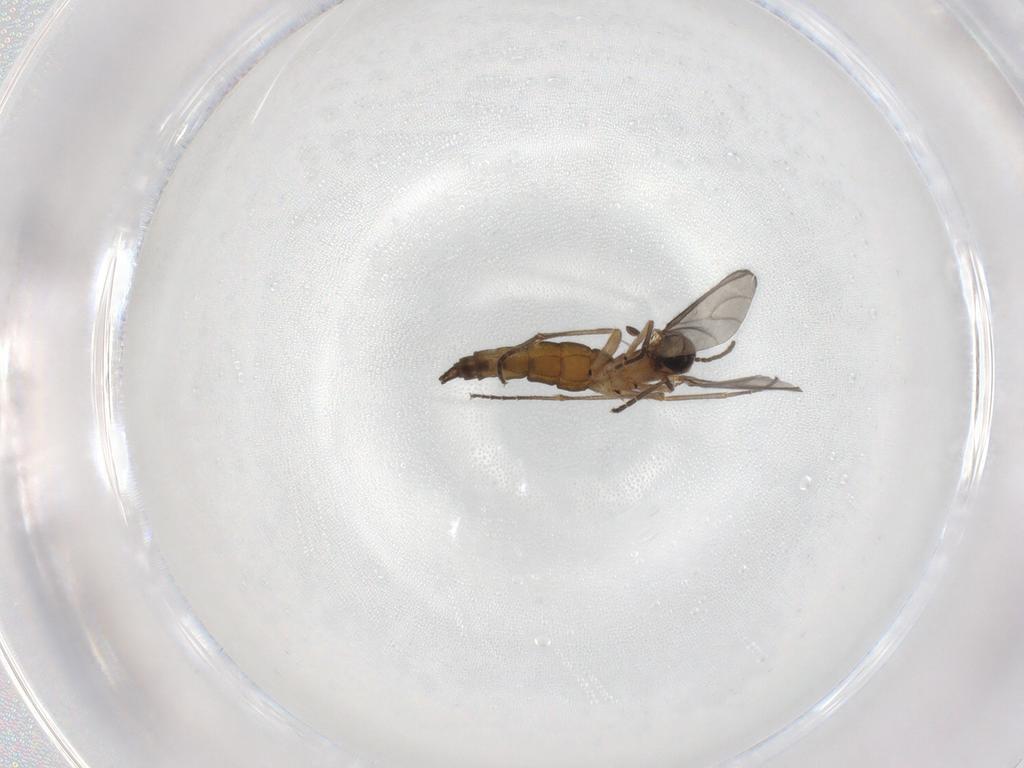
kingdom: Animalia
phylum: Arthropoda
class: Insecta
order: Diptera
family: Sciaridae
